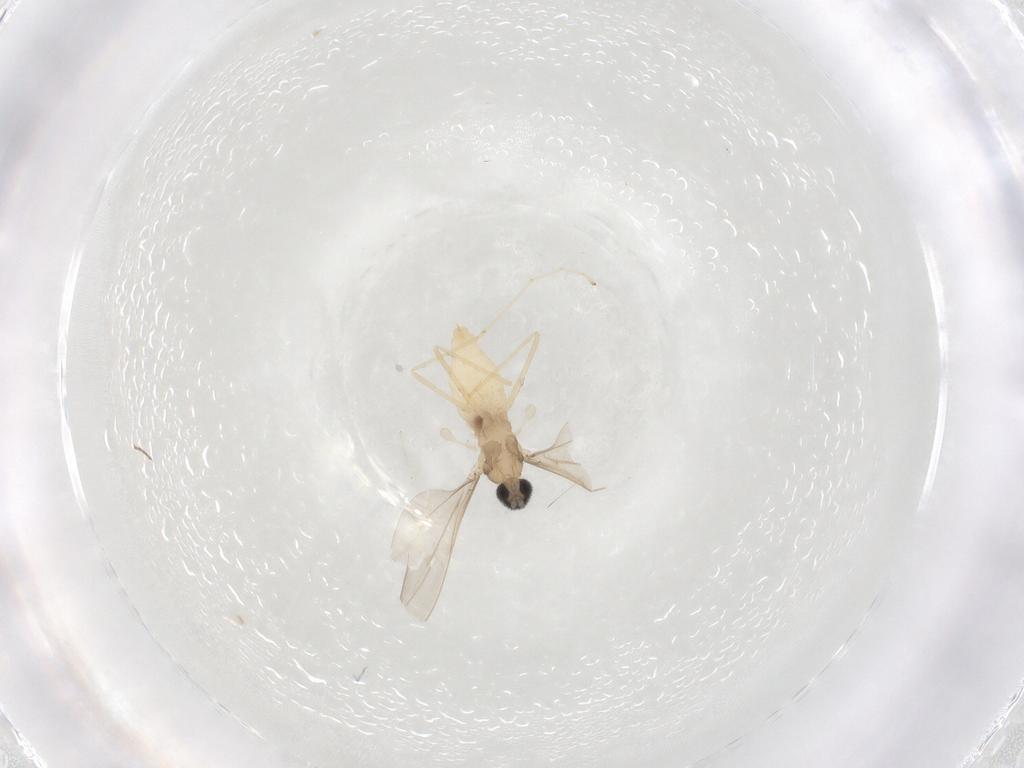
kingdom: Animalia
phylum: Arthropoda
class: Insecta
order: Diptera
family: Cecidomyiidae
